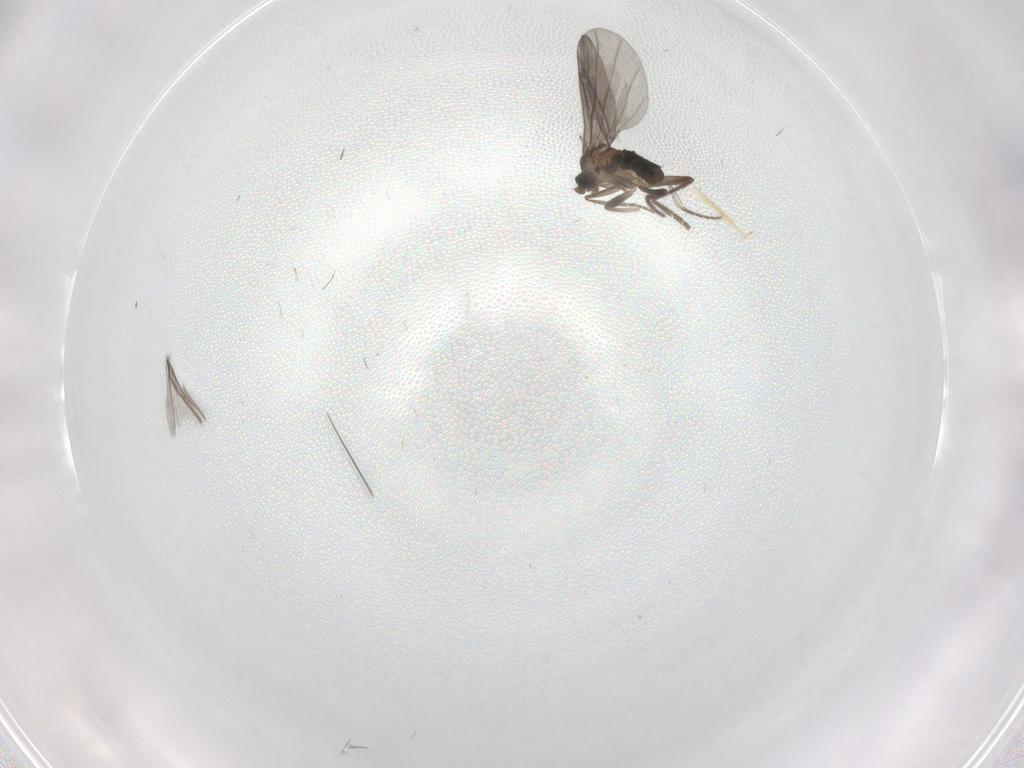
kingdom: Animalia
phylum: Arthropoda
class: Insecta
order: Diptera
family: Phoridae
